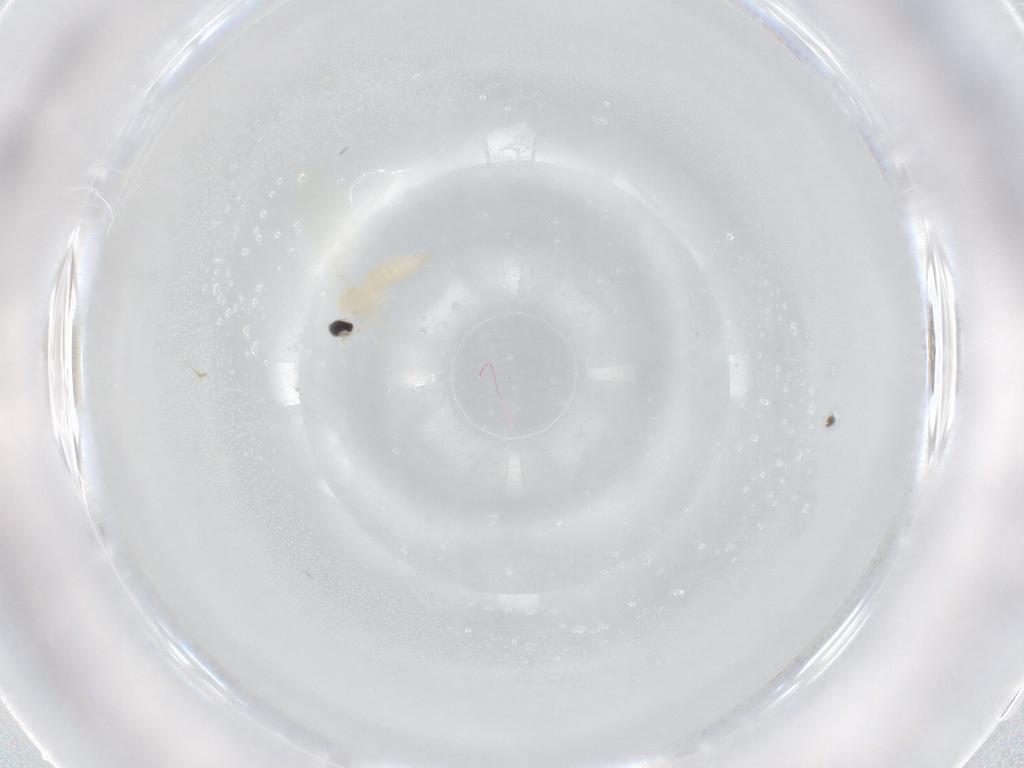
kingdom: Animalia
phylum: Arthropoda
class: Insecta
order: Diptera
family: Cecidomyiidae
